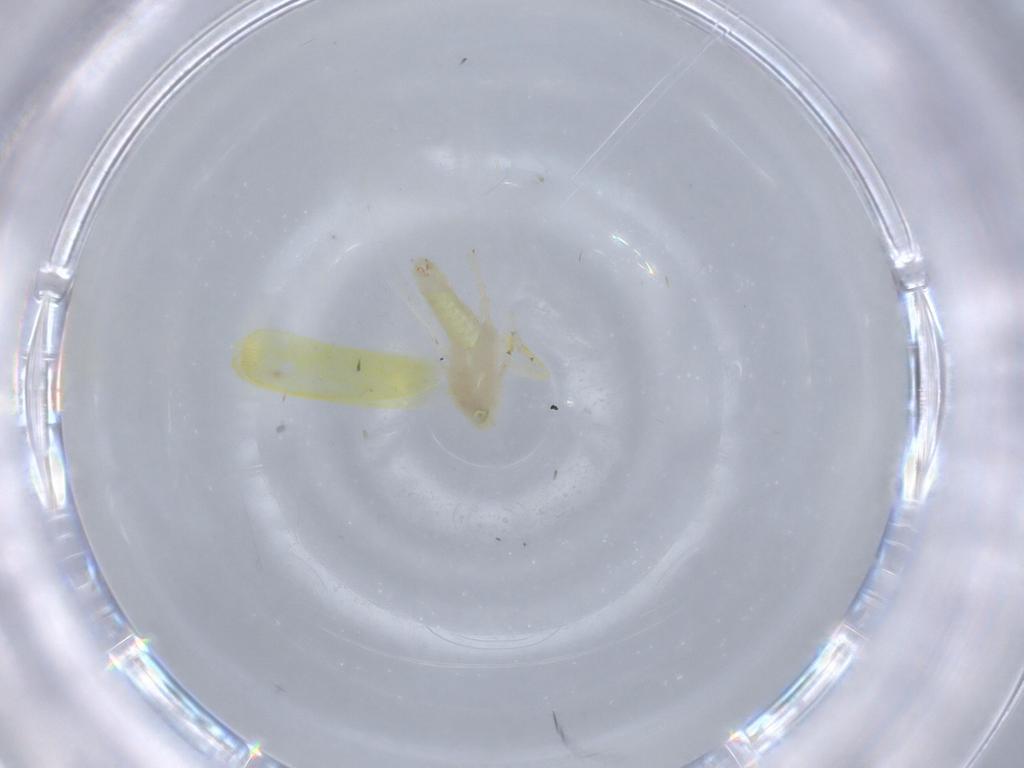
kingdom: Animalia
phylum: Arthropoda
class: Insecta
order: Hemiptera
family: Cicadellidae
